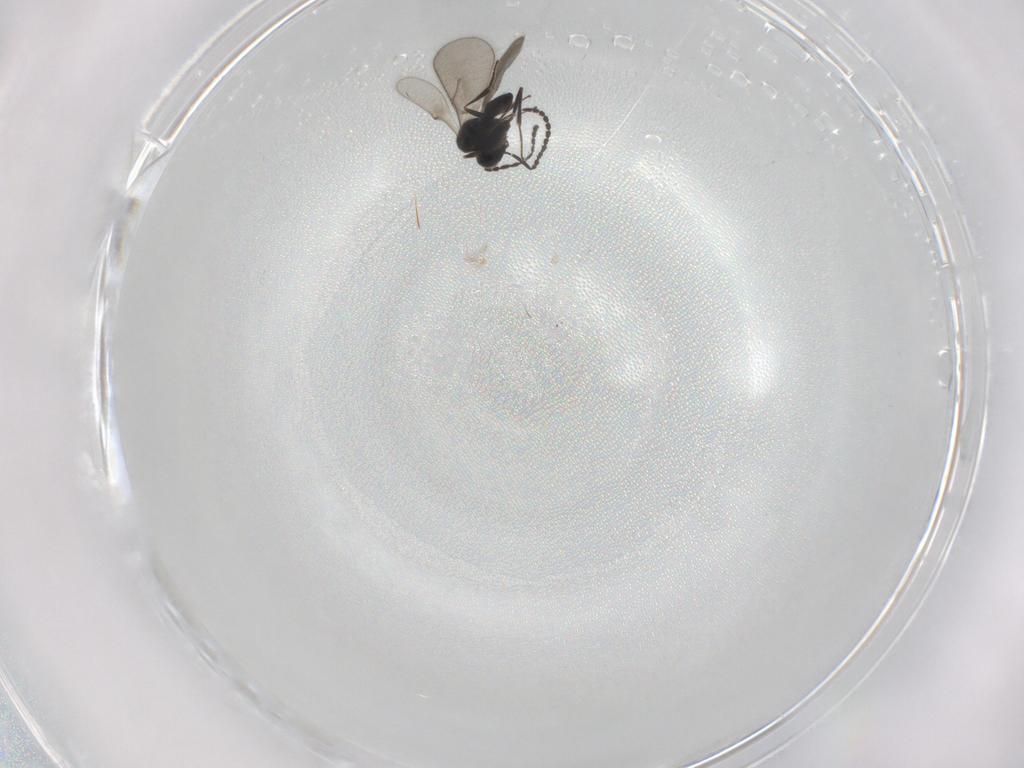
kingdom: Animalia
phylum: Arthropoda
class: Insecta
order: Hymenoptera
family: Scelionidae
